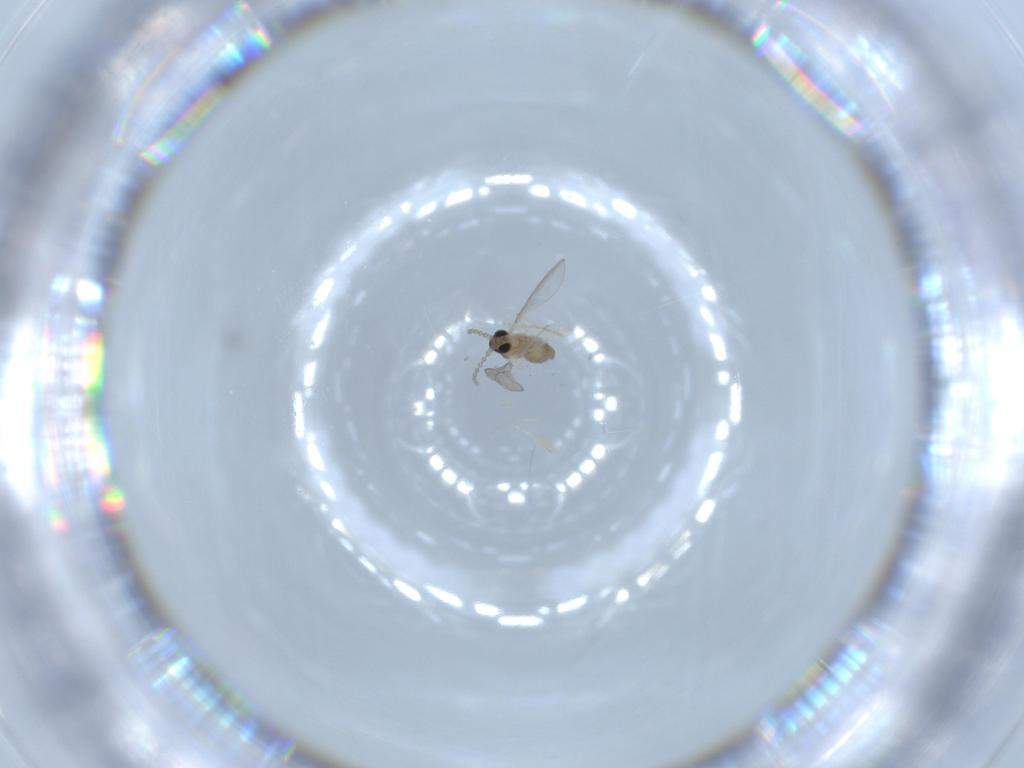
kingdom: Animalia
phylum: Arthropoda
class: Insecta
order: Diptera
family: Cecidomyiidae
